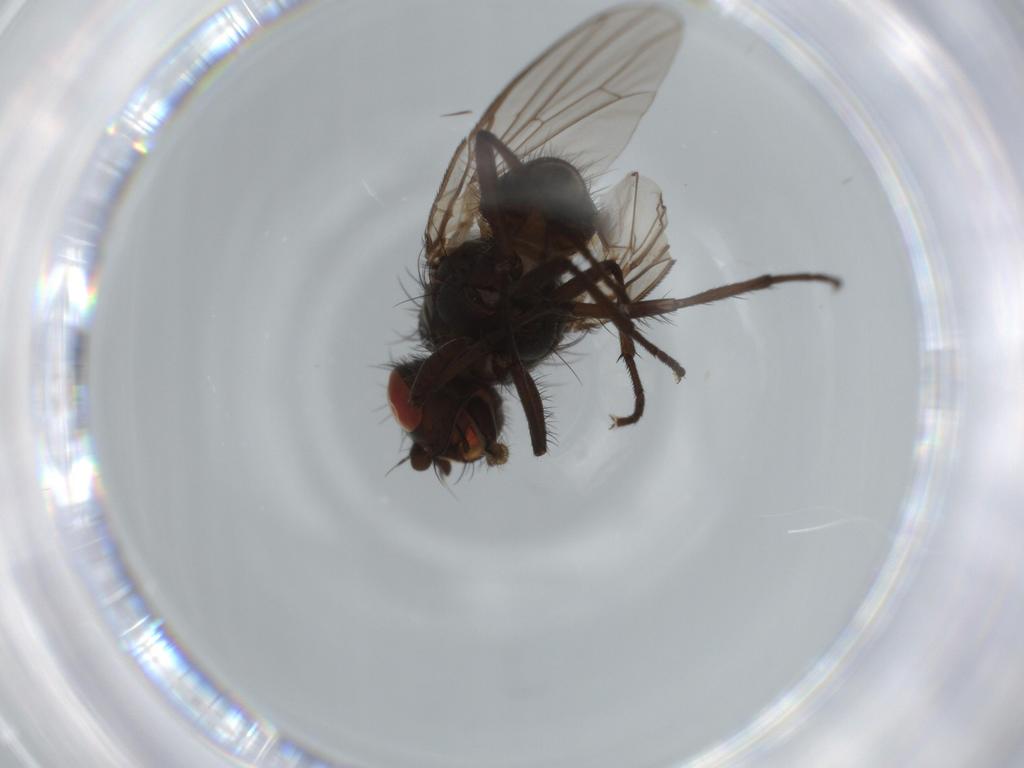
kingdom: Animalia
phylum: Arthropoda
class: Insecta
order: Diptera
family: Anthomyiidae
